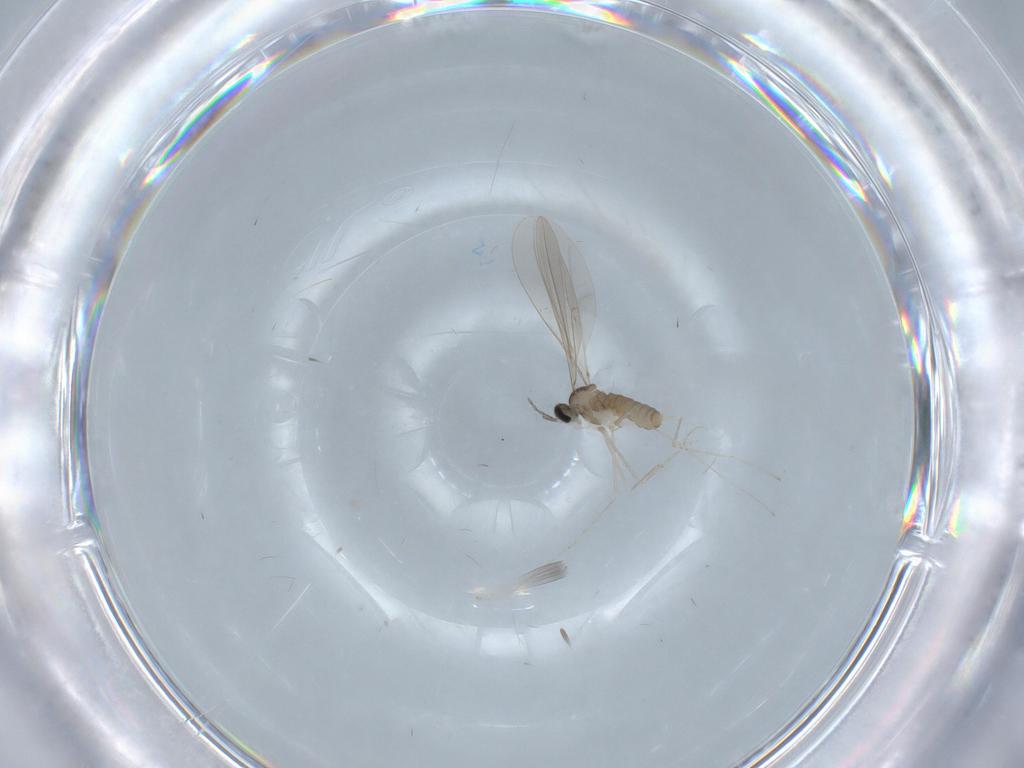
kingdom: Animalia
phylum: Arthropoda
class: Insecta
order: Diptera
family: Cecidomyiidae
